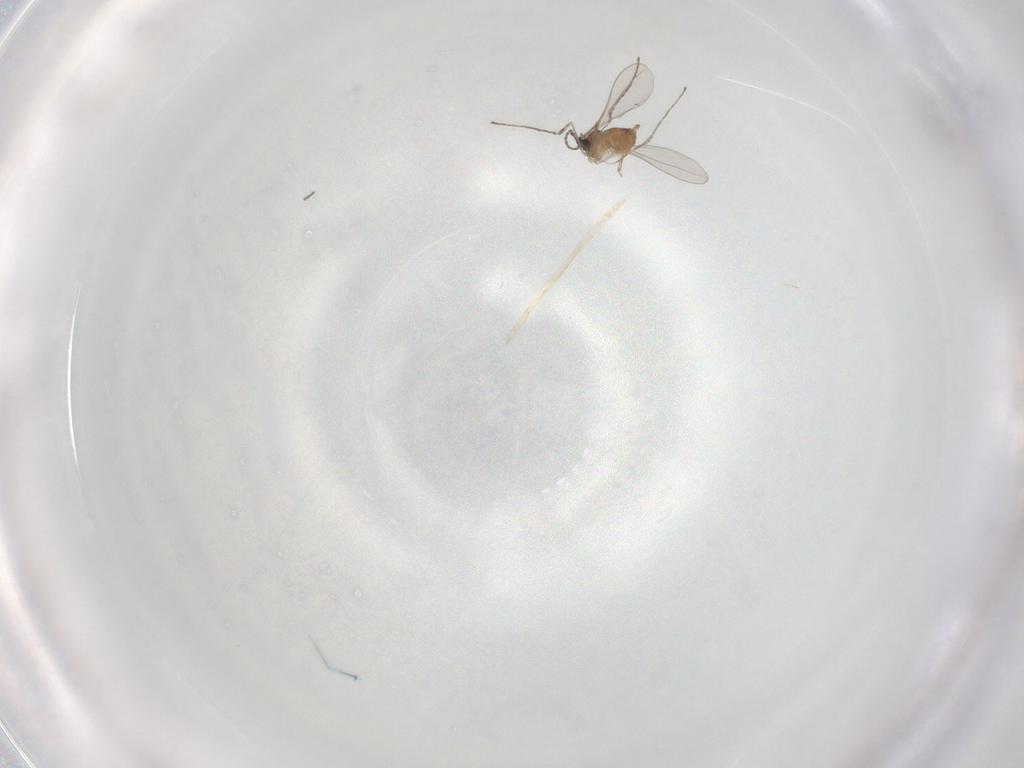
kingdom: Animalia
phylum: Arthropoda
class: Insecta
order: Diptera
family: Cecidomyiidae
